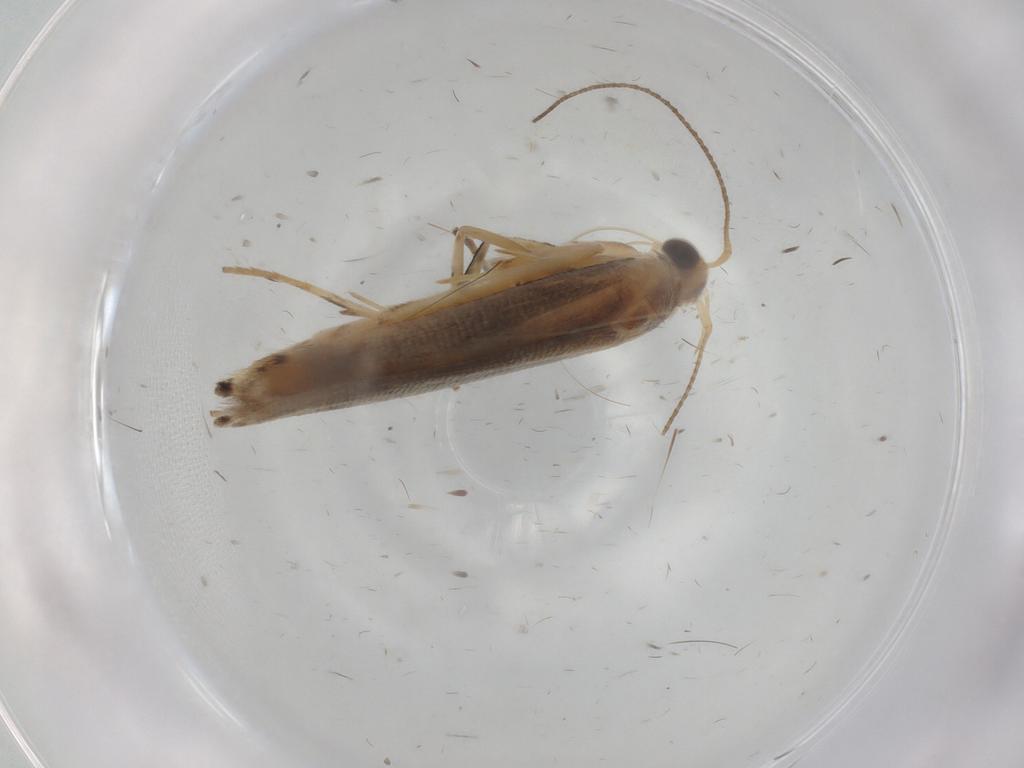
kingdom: Animalia
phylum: Arthropoda
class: Insecta
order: Lepidoptera
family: Gelechiidae
